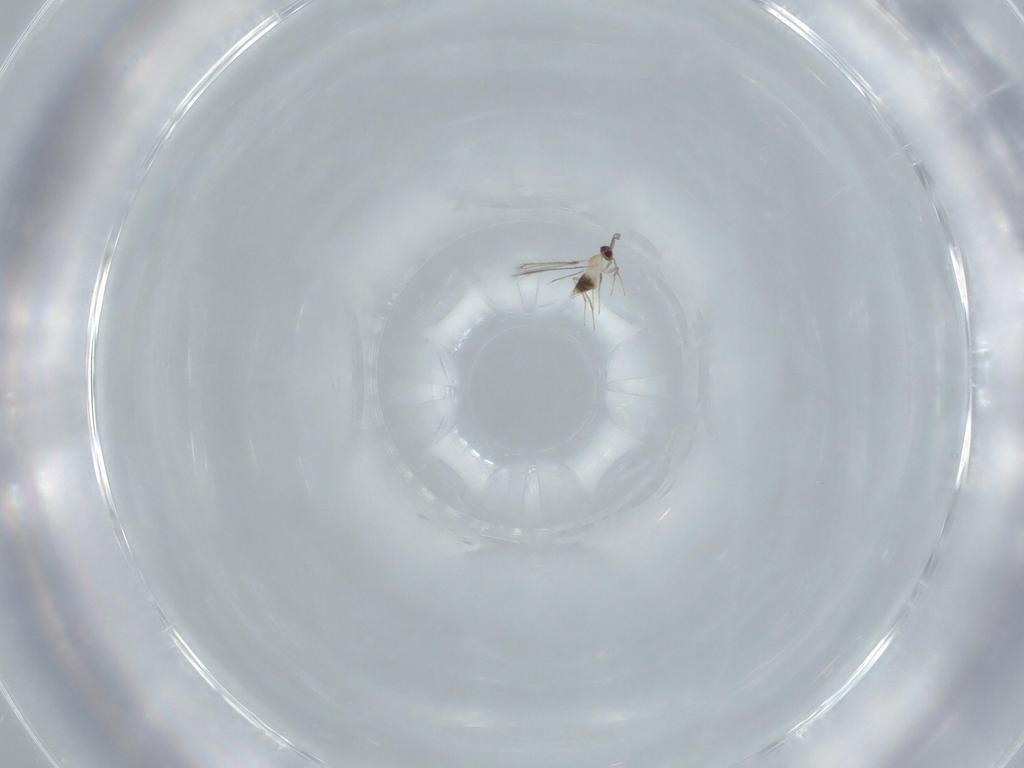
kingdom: Animalia
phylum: Arthropoda
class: Insecta
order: Hymenoptera
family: Mymaridae
